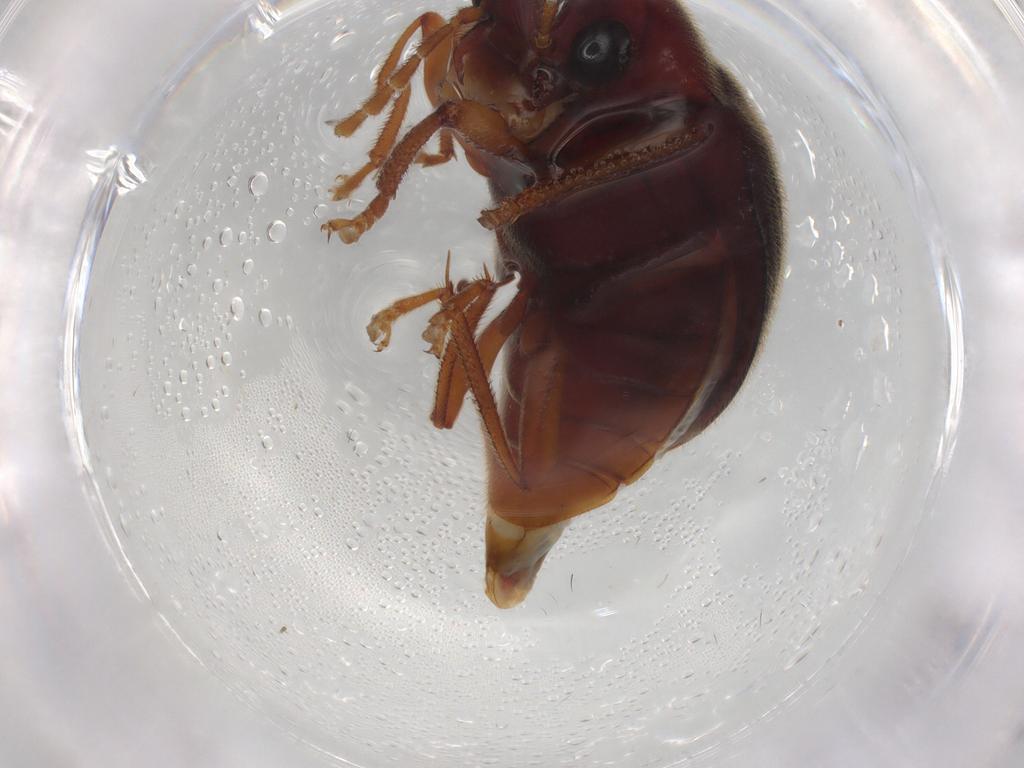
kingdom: Animalia
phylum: Arthropoda
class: Insecta
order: Coleoptera
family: Ptilodactylidae
